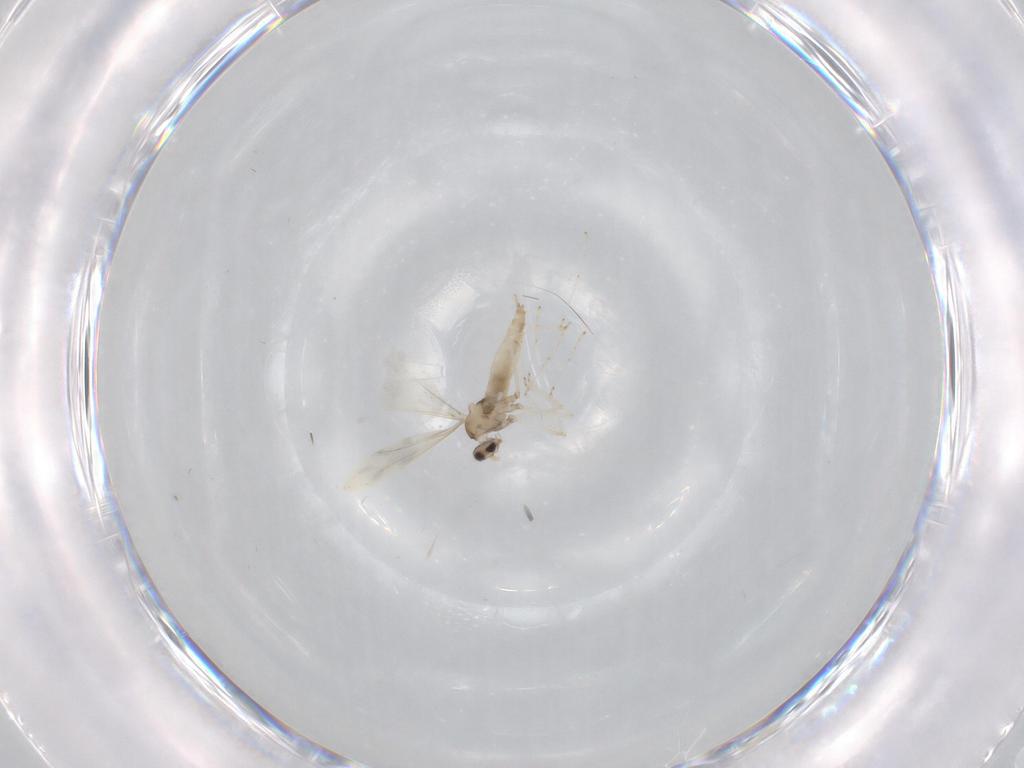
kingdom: Animalia
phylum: Arthropoda
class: Insecta
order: Diptera
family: Cecidomyiidae
